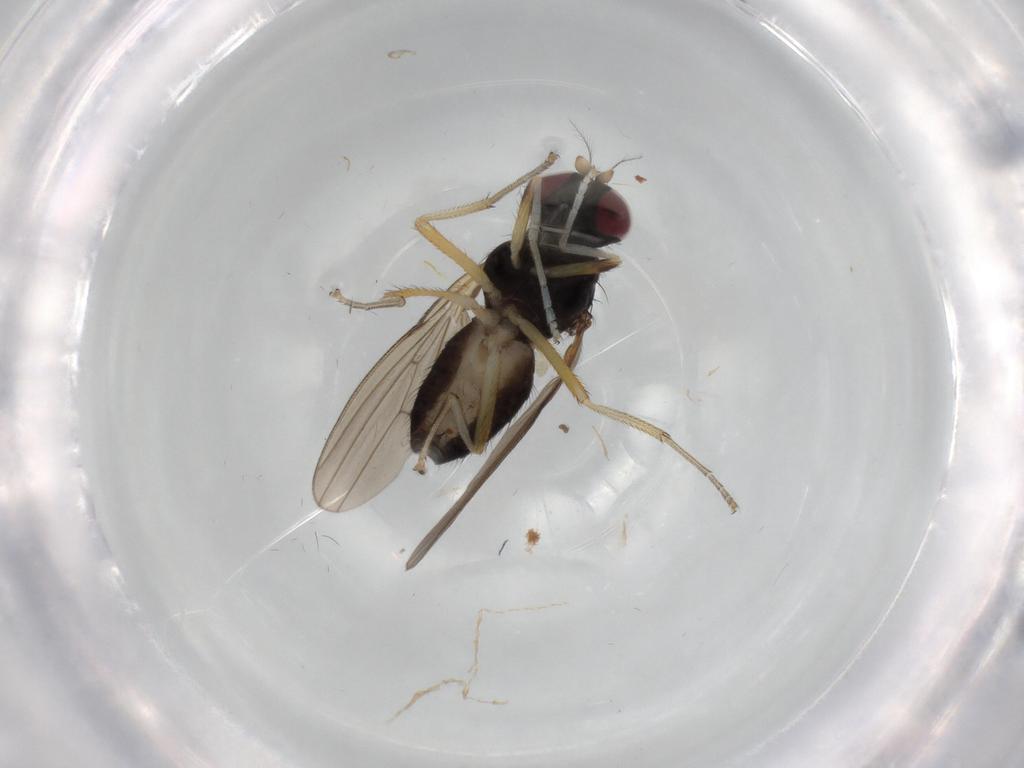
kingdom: Animalia
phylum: Arthropoda
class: Insecta
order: Diptera
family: Lauxaniidae
